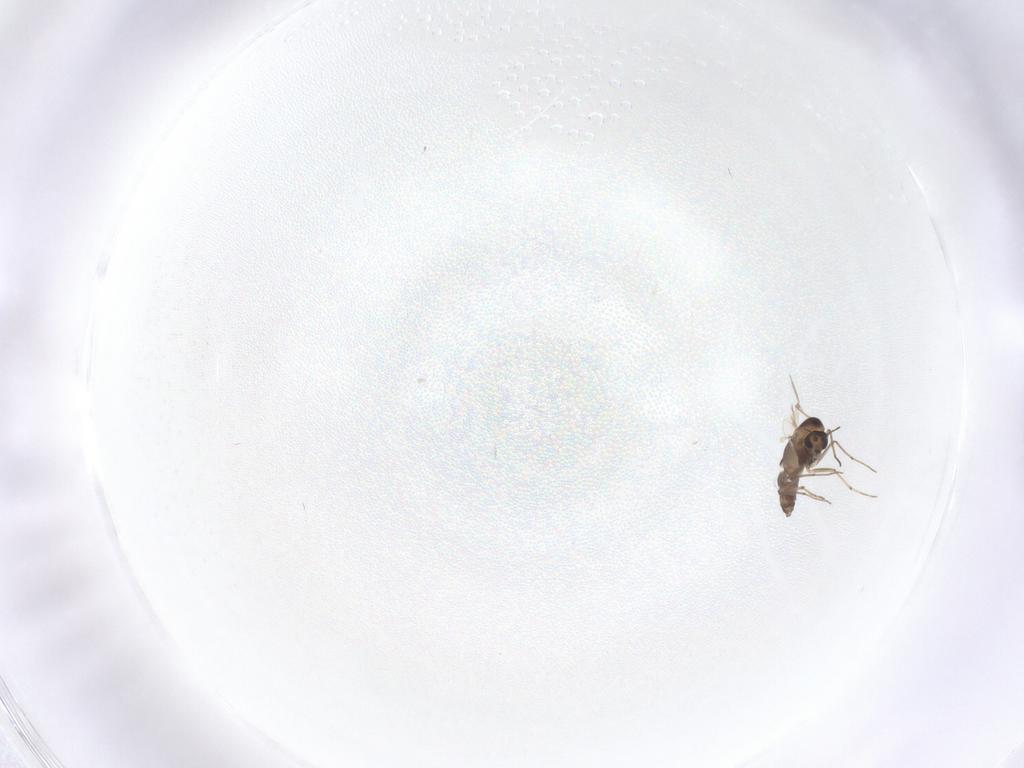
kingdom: Animalia
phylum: Arthropoda
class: Insecta
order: Diptera
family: Chironomidae
